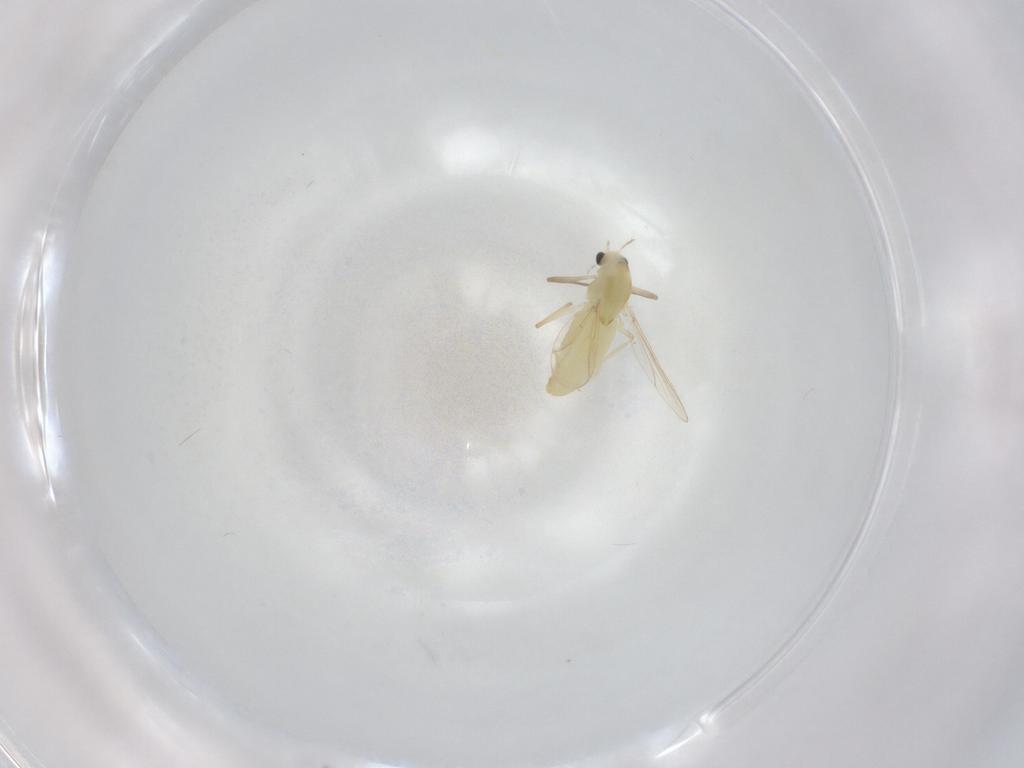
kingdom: Animalia
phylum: Arthropoda
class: Insecta
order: Diptera
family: Chironomidae
